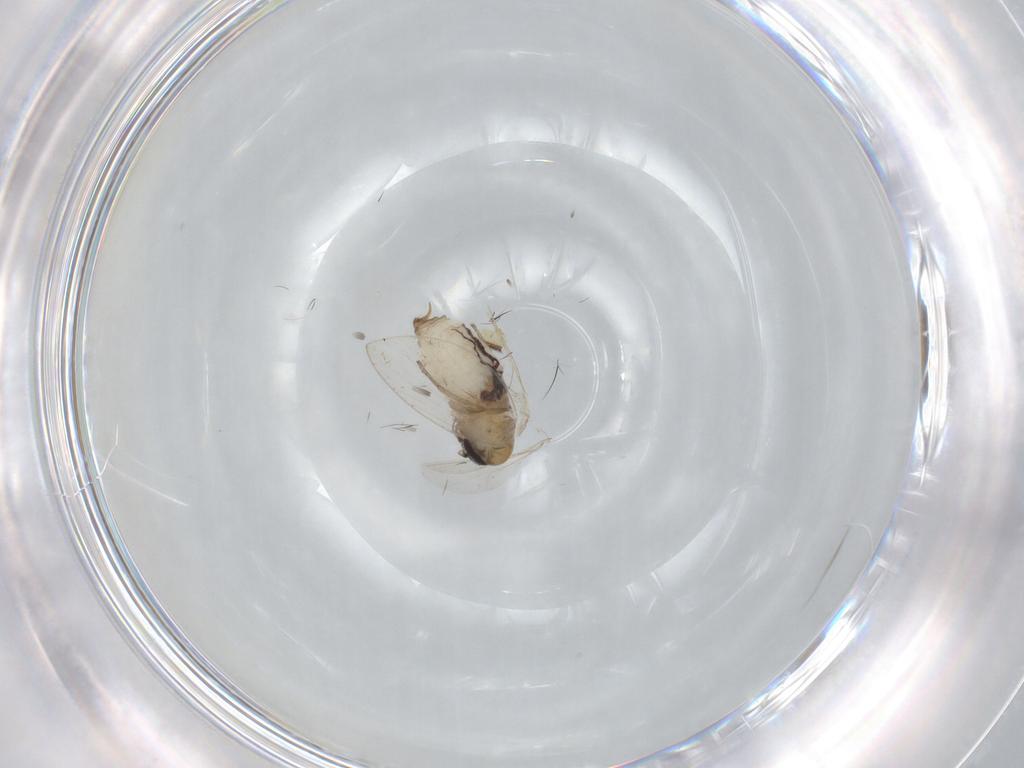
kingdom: Animalia
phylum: Arthropoda
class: Insecta
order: Diptera
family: Psychodidae
